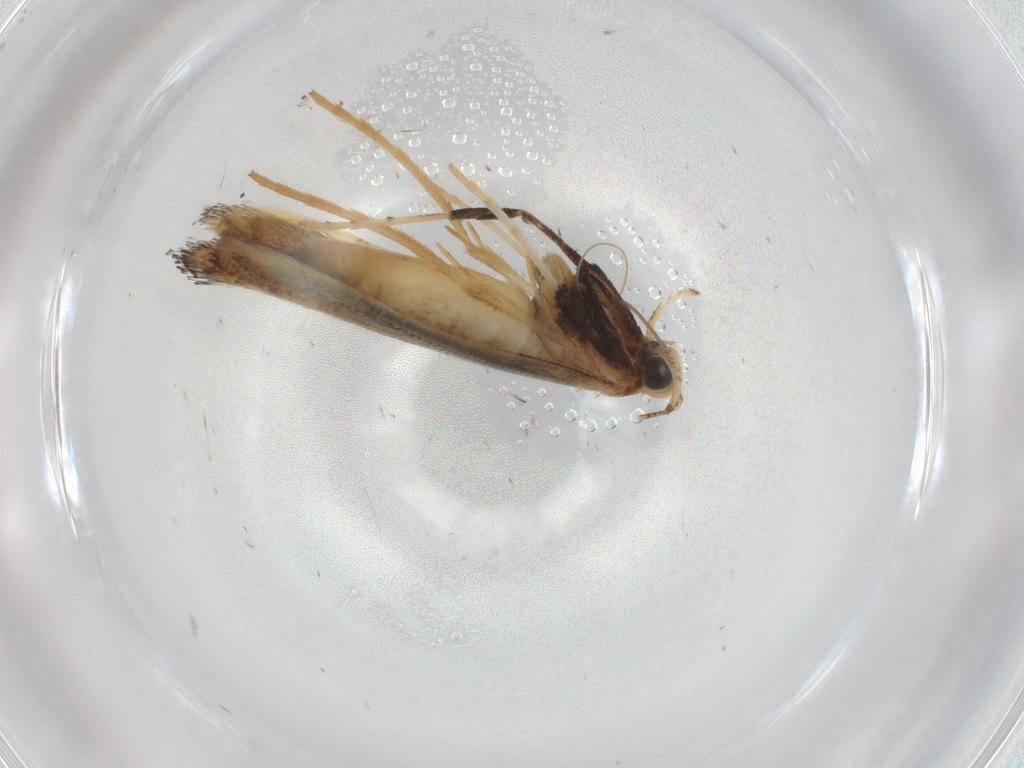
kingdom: Animalia
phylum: Arthropoda
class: Insecta
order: Lepidoptera
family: Gracillariidae
